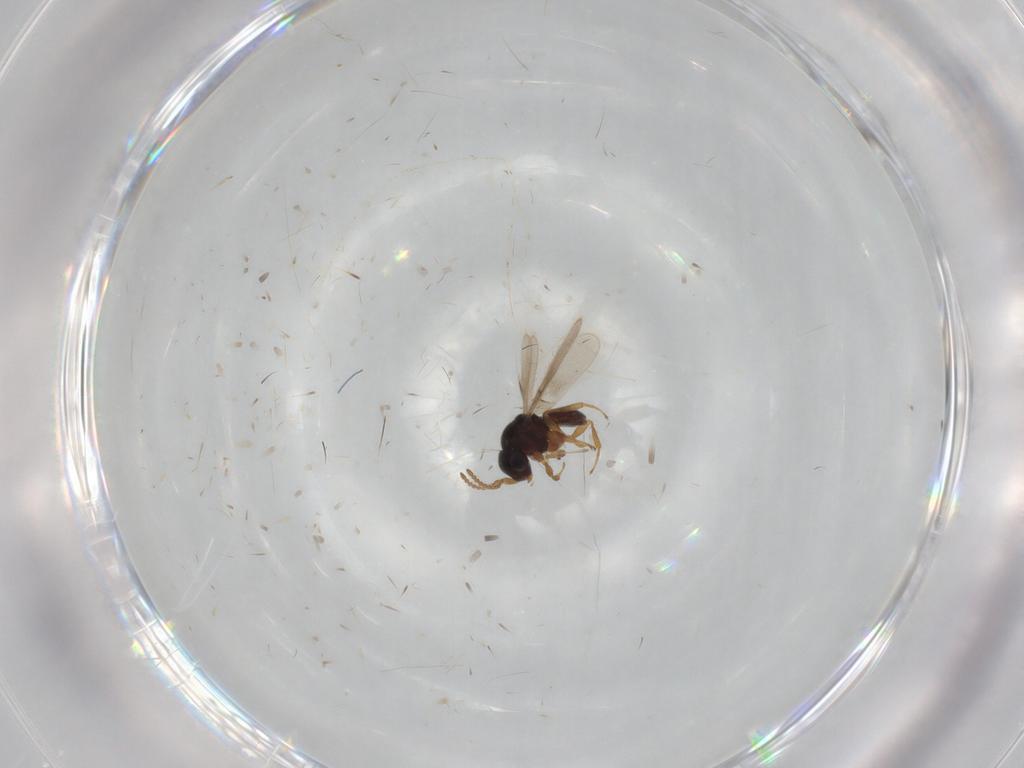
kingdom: Animalia
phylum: Arthropoda
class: Insecta
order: Hymenoptera
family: Scelionidae
